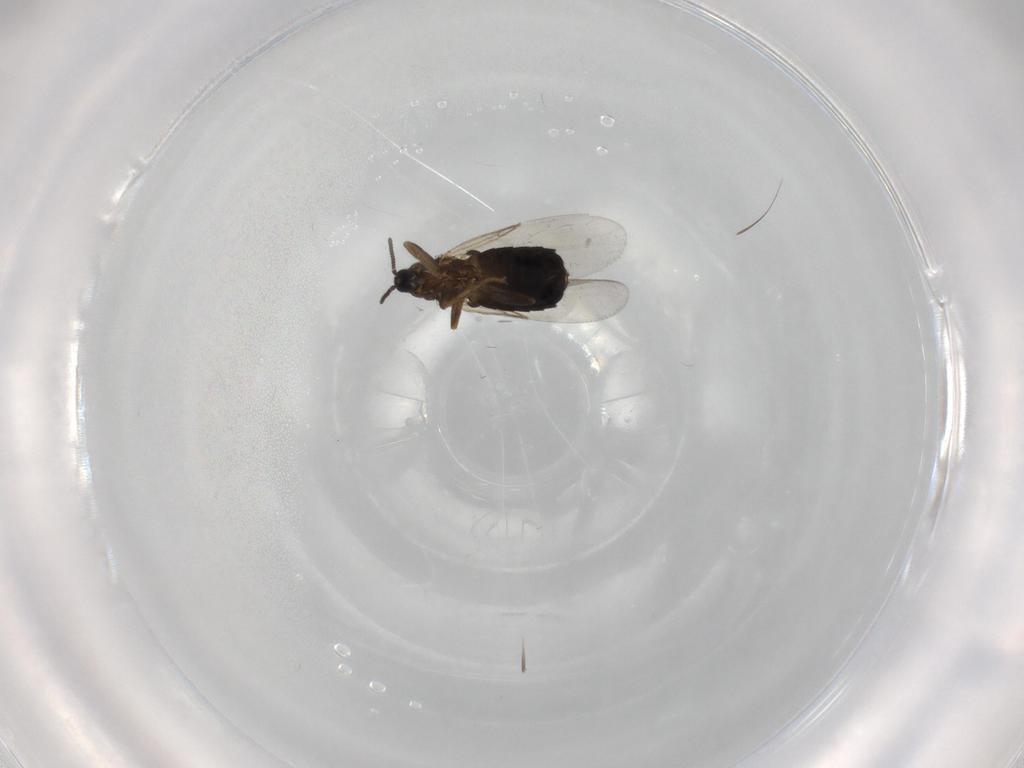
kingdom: Animalia
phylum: Arthropoda
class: Insecta
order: Diptera
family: Scatopsidae
